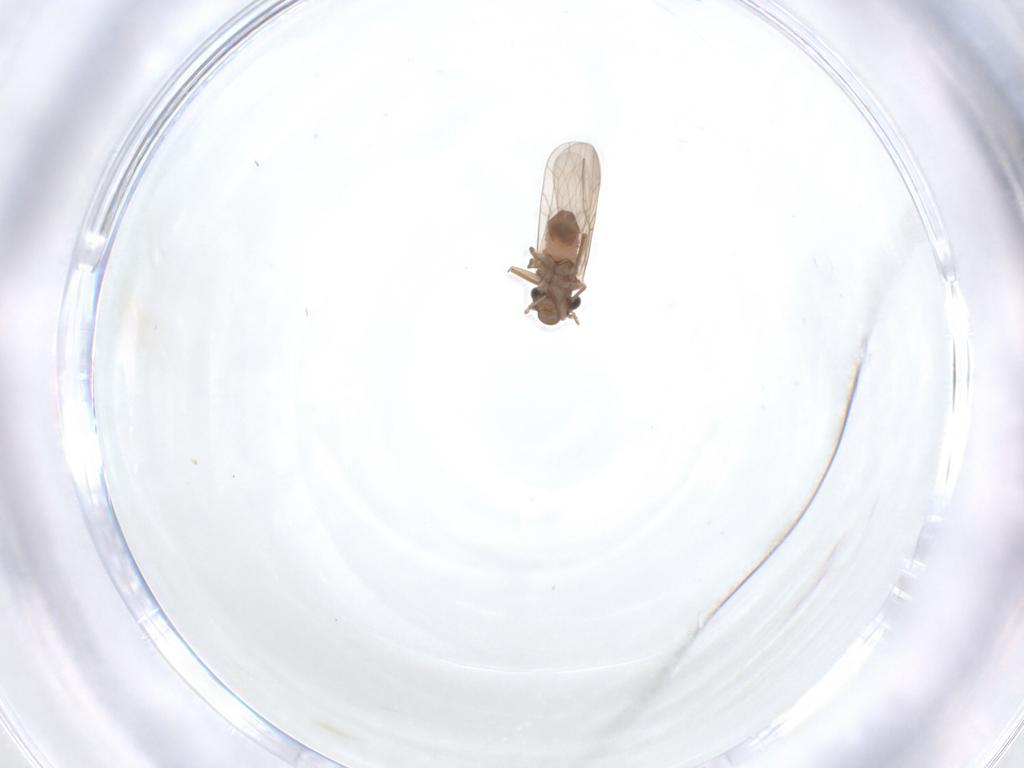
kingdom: Animalia
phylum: Arthropoda
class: Insecta
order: Psocodea
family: Lepidopsocidae
